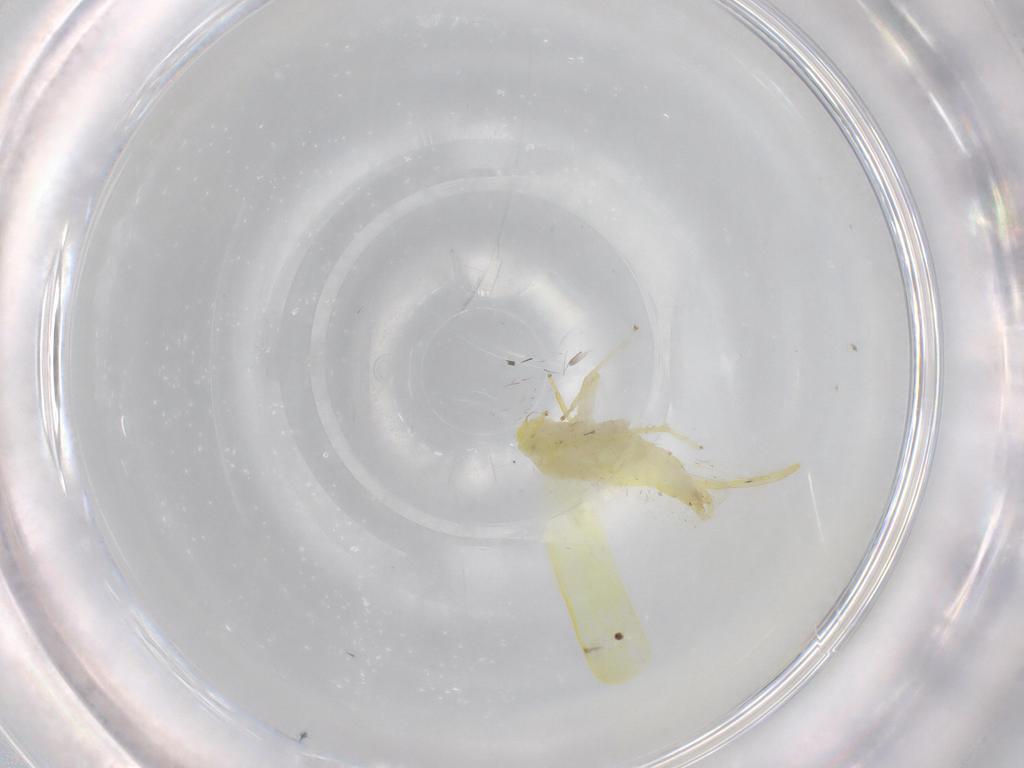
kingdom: Animalia
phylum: Arthropoda
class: Insecta
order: Hemiptera
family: Cicadellidae
